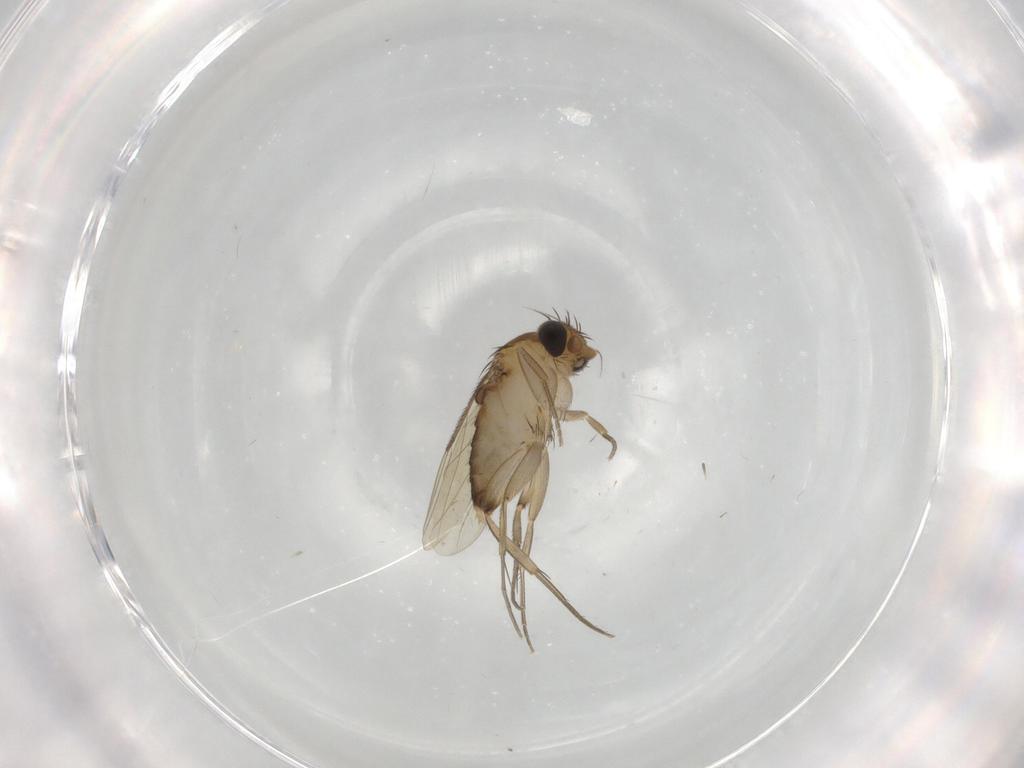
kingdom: Animalia
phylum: Arthropoda
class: Insecta
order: Diptera
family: Phoridae
